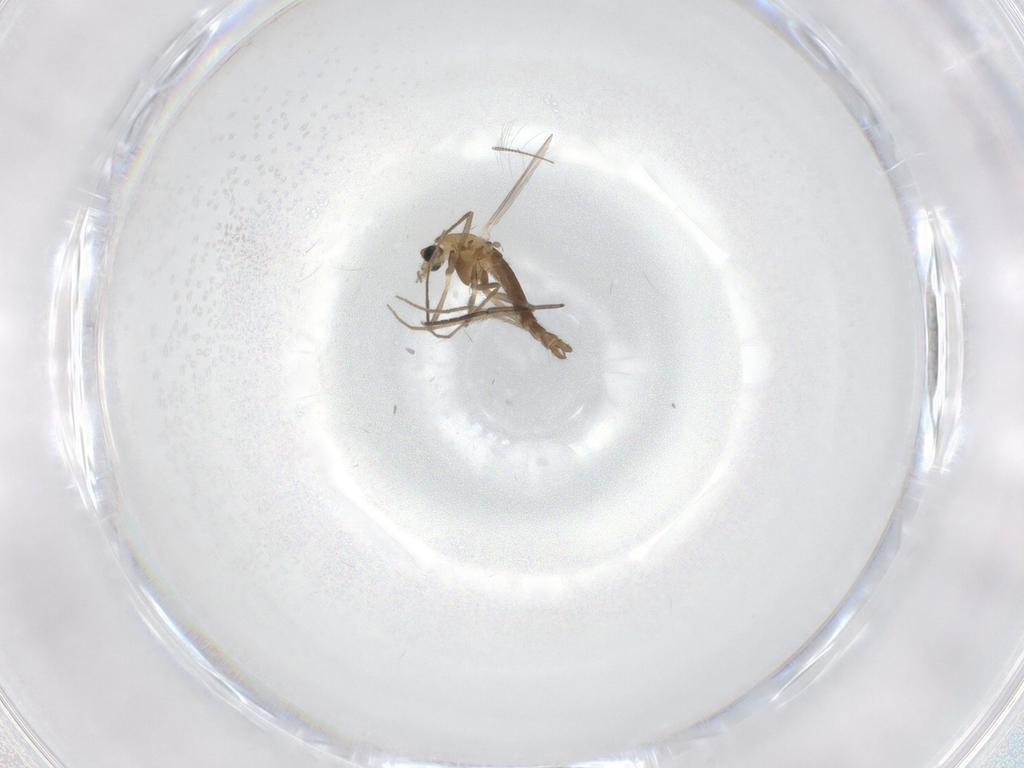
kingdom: Animalia
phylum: Arthropoda
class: Insecta
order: Diptera
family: Chironomidae
